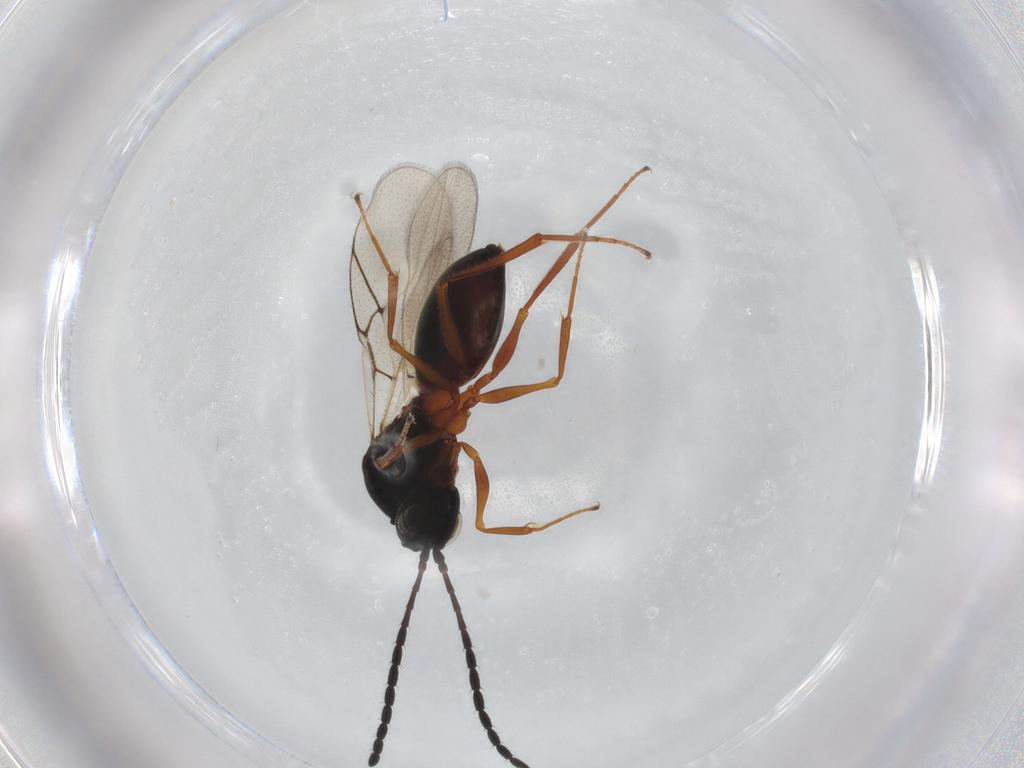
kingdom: Animalia
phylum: Arthropoda
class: Insecta
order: Hymenoptera
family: Figitidae
